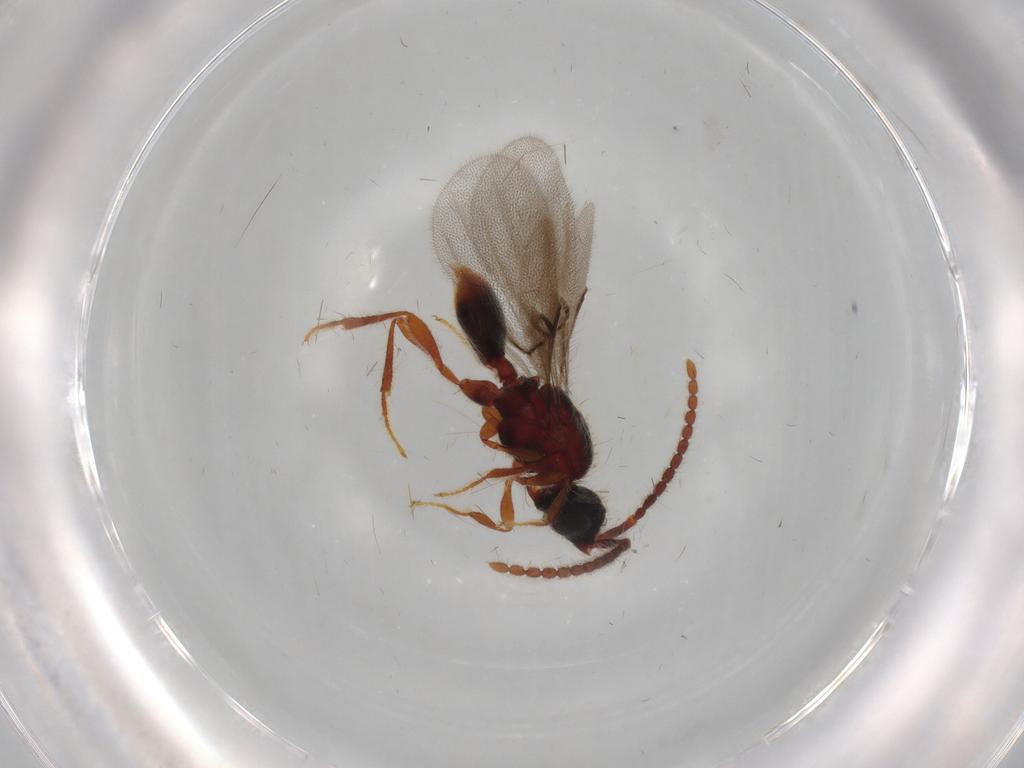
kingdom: Animalia
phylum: Arthropoda
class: Insecta
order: Hymenoptera
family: Diapriidae
